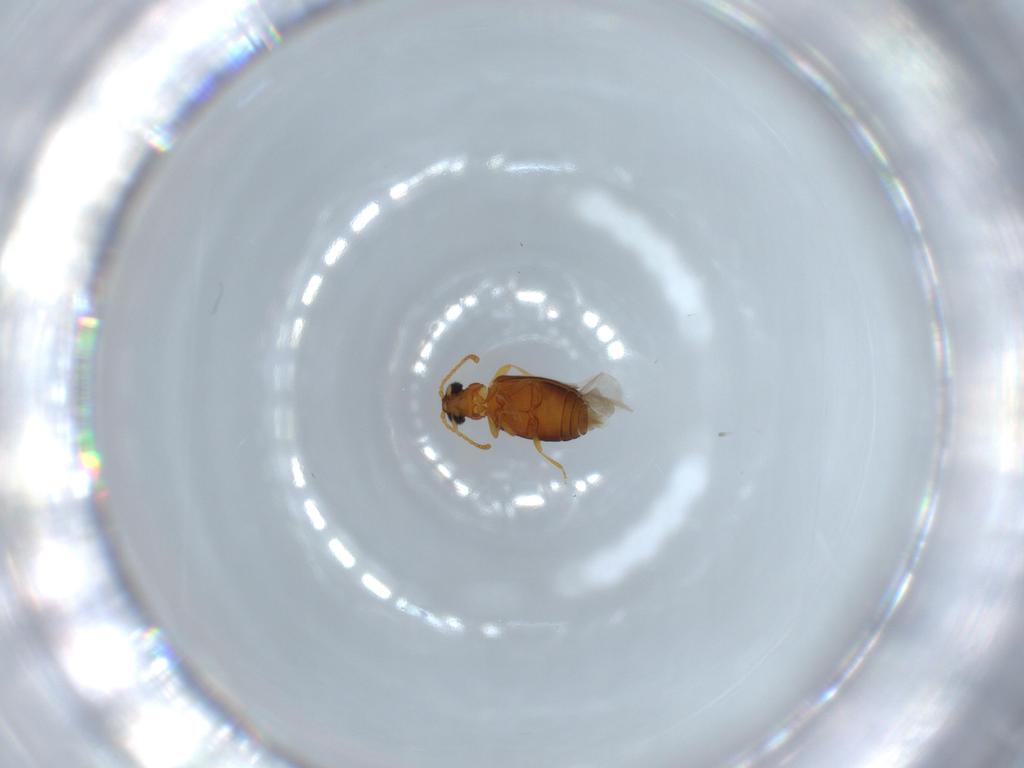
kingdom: Animalia
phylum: Arthropoda
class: Insecta
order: Coleoptera
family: Aderidae
